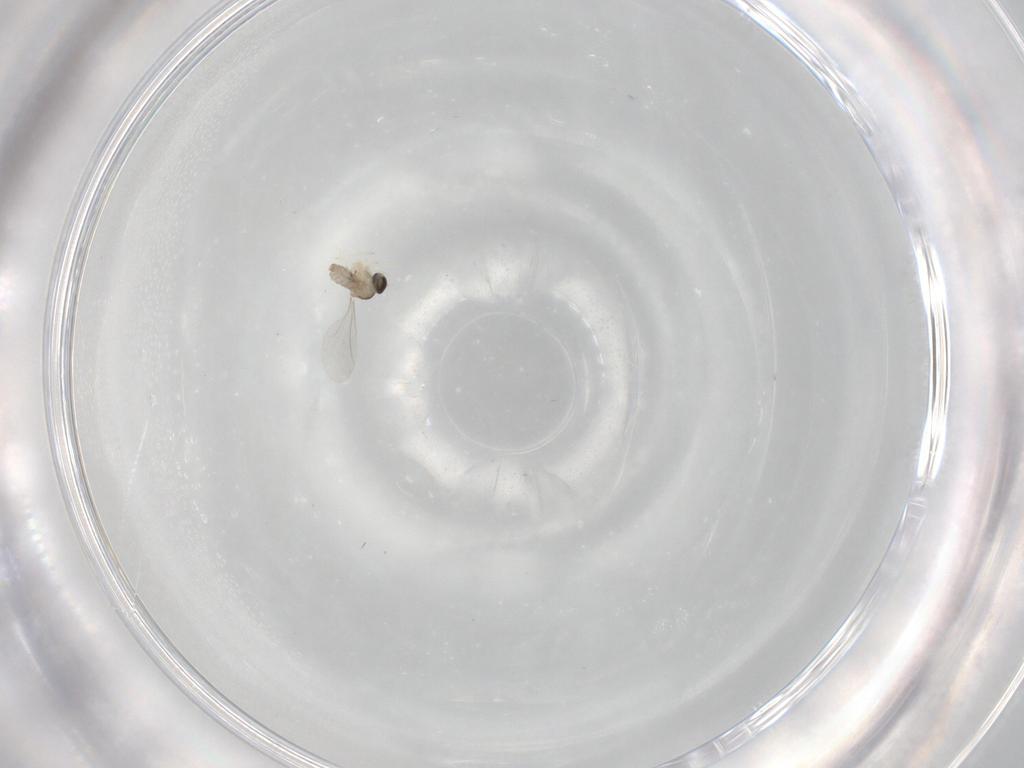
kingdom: Animalia
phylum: Arthropoda
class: Insecta
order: Diptera
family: Cecidomyiidae
